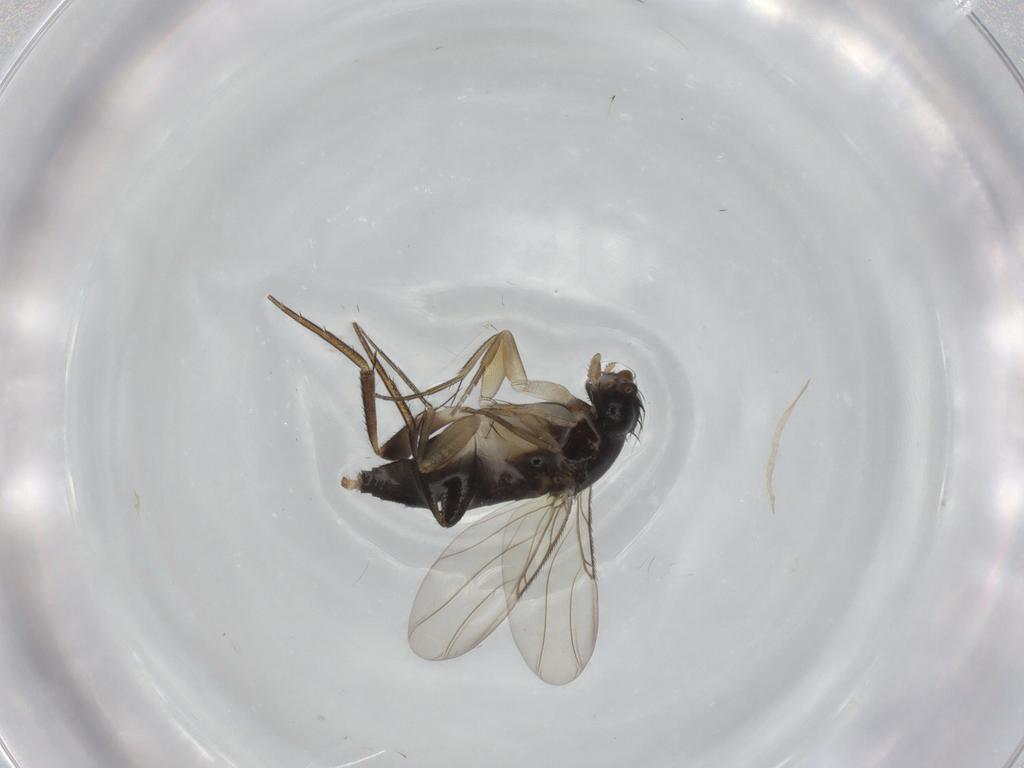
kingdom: Animalia
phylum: Arthropoda
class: Insecta
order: Diptera
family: Phoridae
